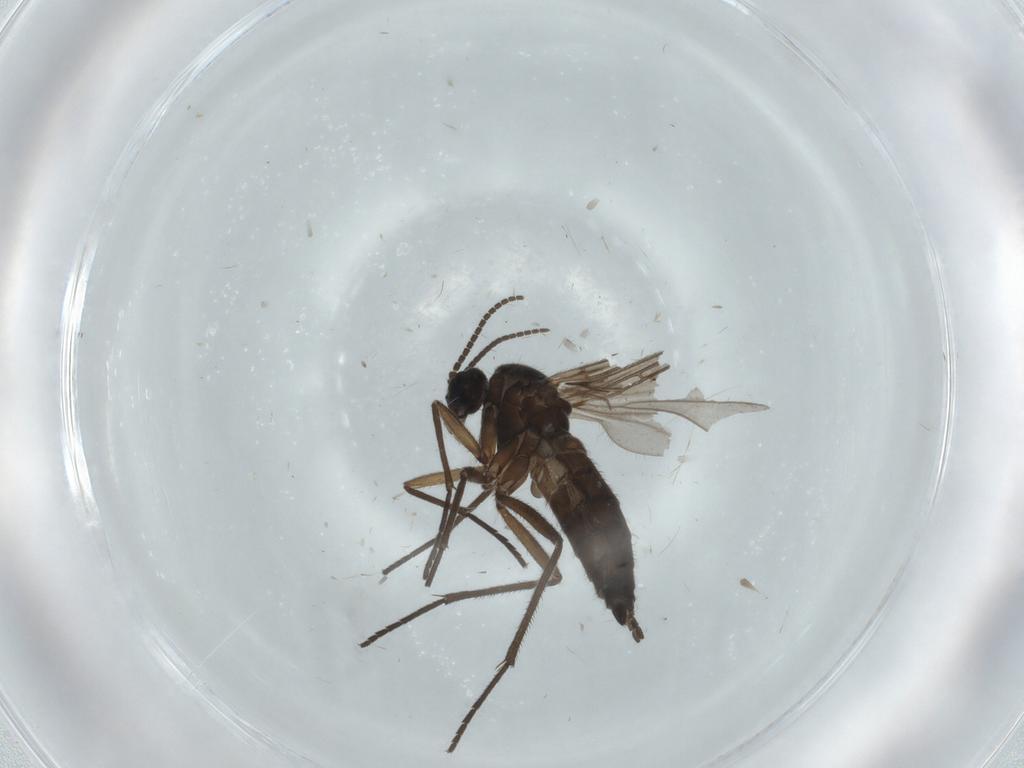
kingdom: Animalia
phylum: Arthropoda
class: Insecta
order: Diptera
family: Sciaridae
